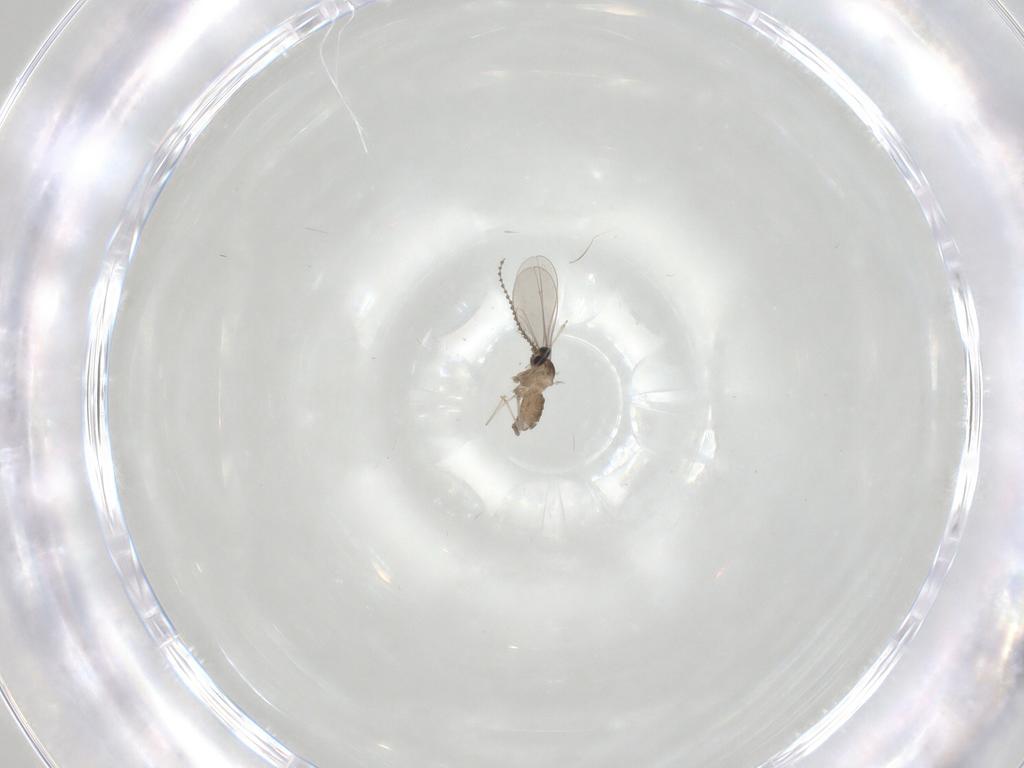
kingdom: Animalia
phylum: Arthropoda
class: Insecta
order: Diptera
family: Cecidomyiidae
